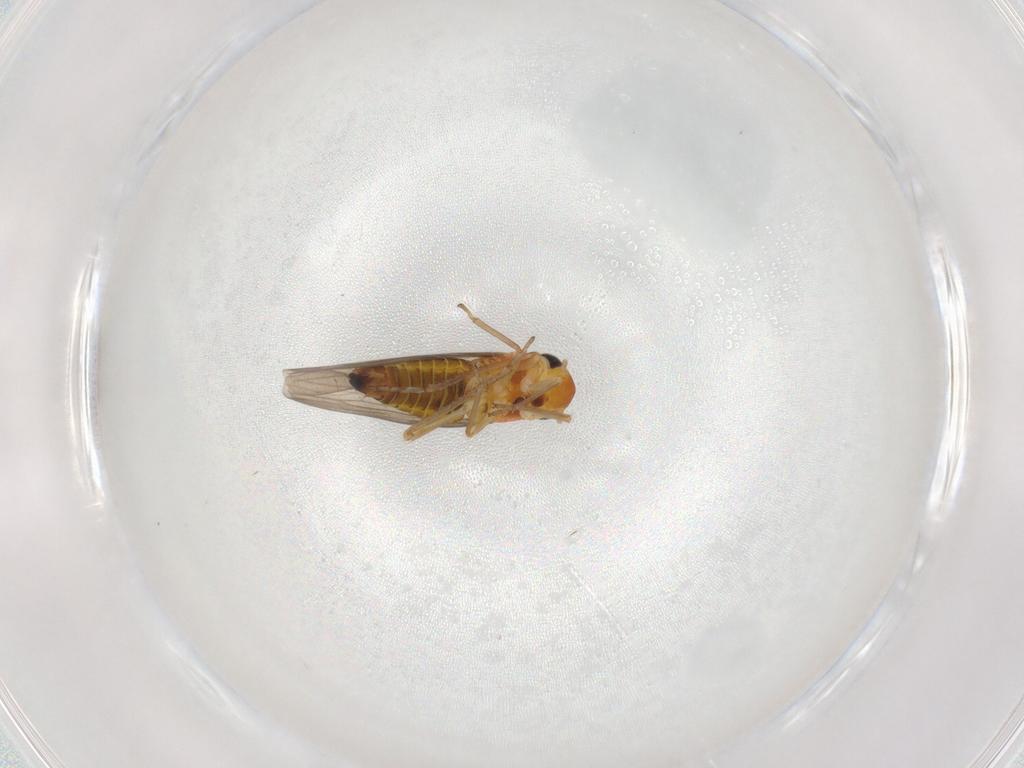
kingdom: Animalia
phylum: Arthropoda
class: Insecta
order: Hemiptera
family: Cicadellidae
